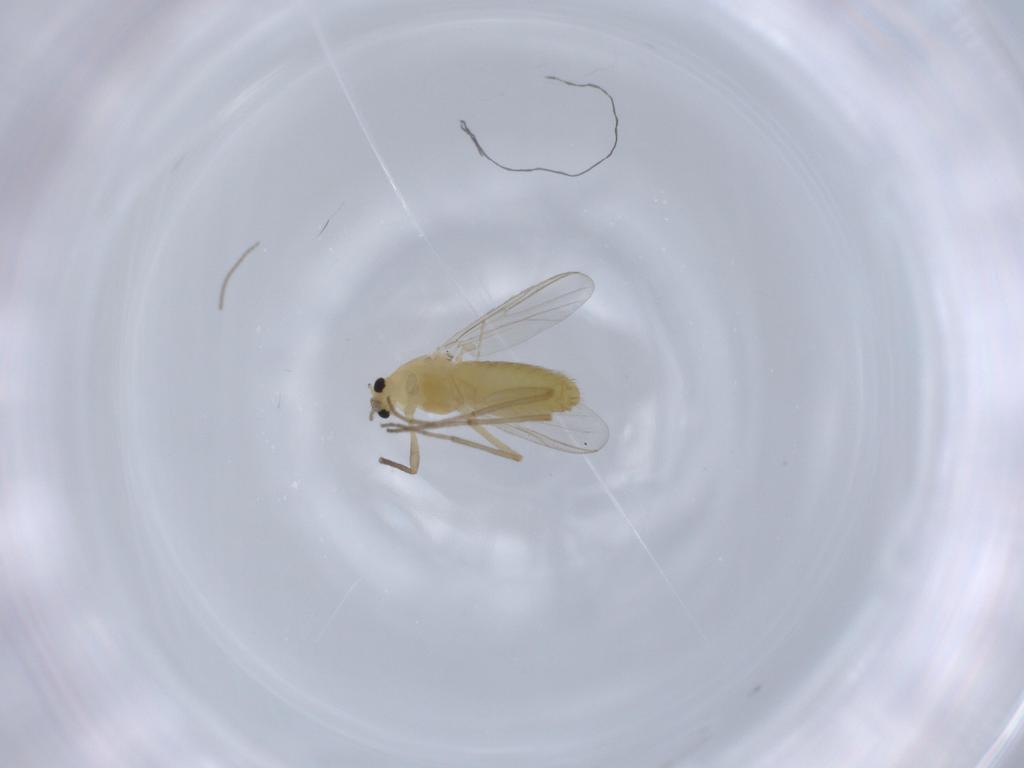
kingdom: Animalia
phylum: Arthropoda
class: Insecta
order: Diptera
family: Chironomidae
